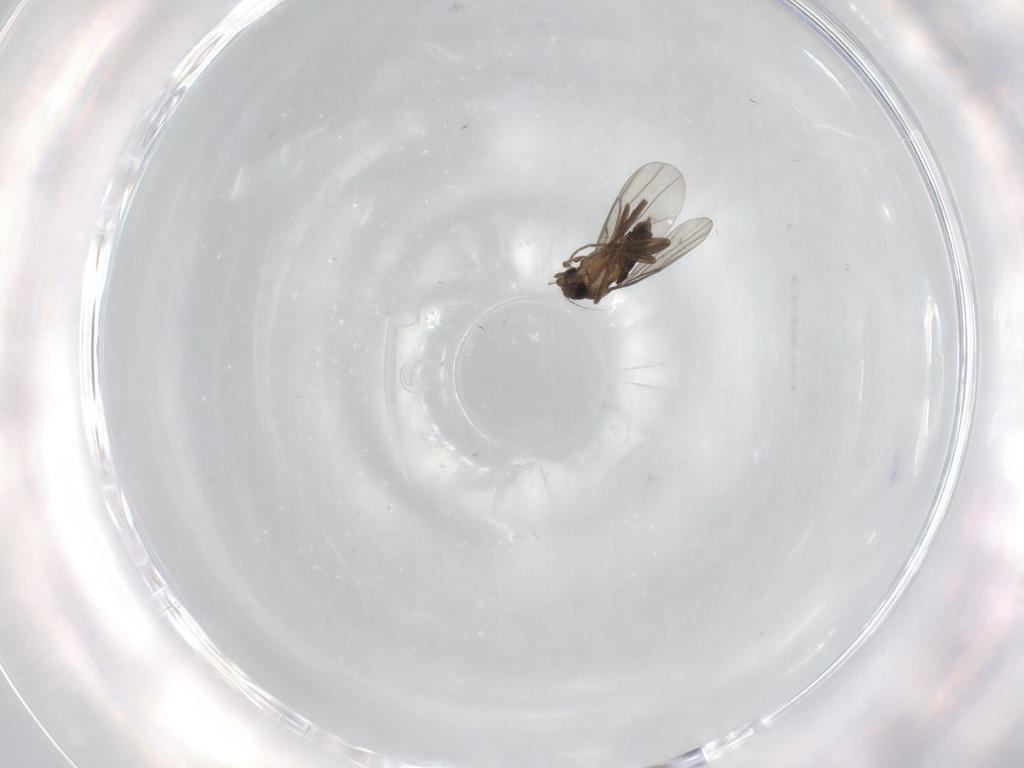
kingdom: Animalia
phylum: Arthropoda
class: Insecta
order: Diptera
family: Phoridae
